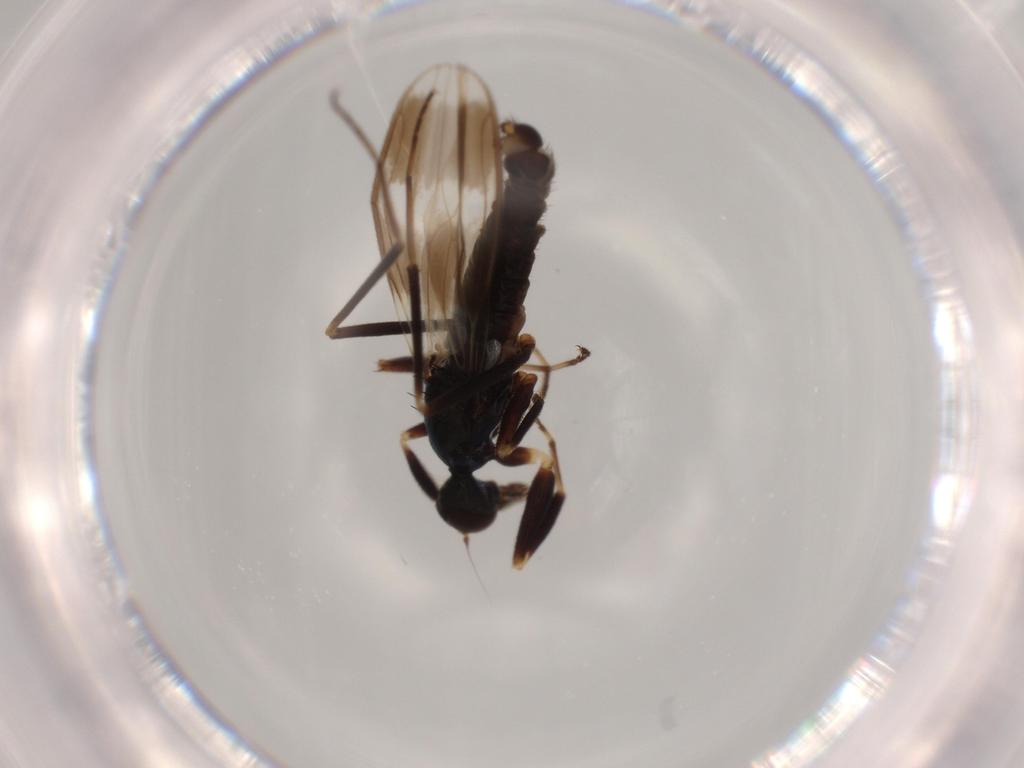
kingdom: Animalia
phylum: Arthropoda
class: Insecta
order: Diptera
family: Hybotidae
